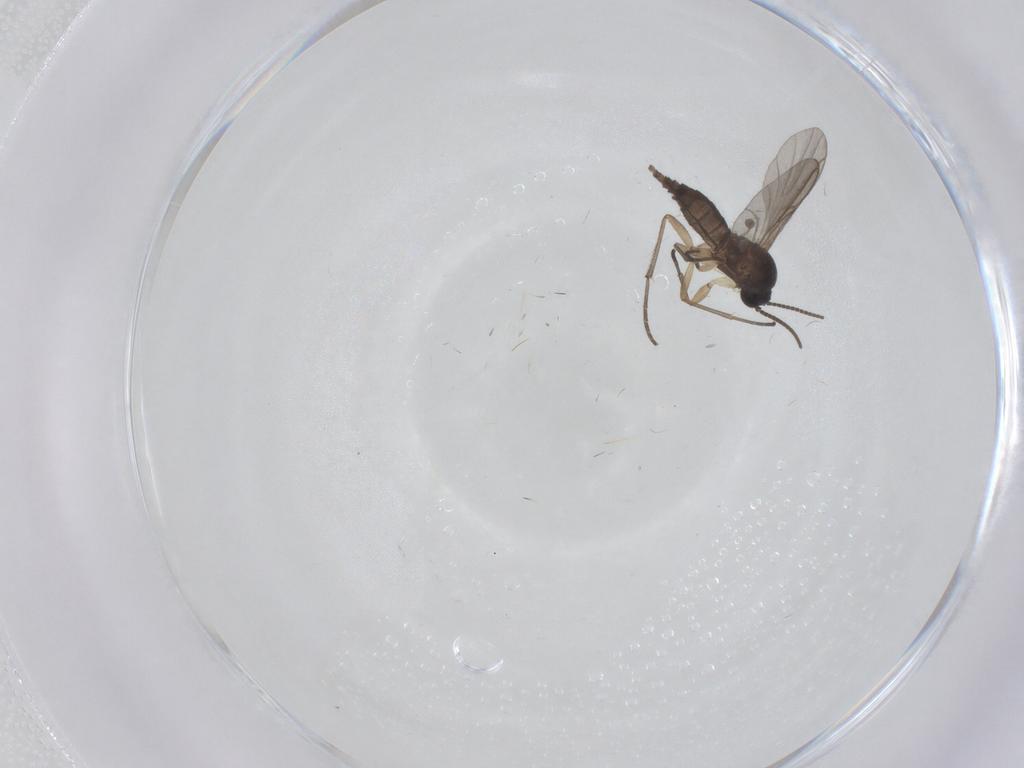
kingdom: Animalia
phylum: Arthropoda
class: Insecta
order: Diptera
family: Sciaridae
